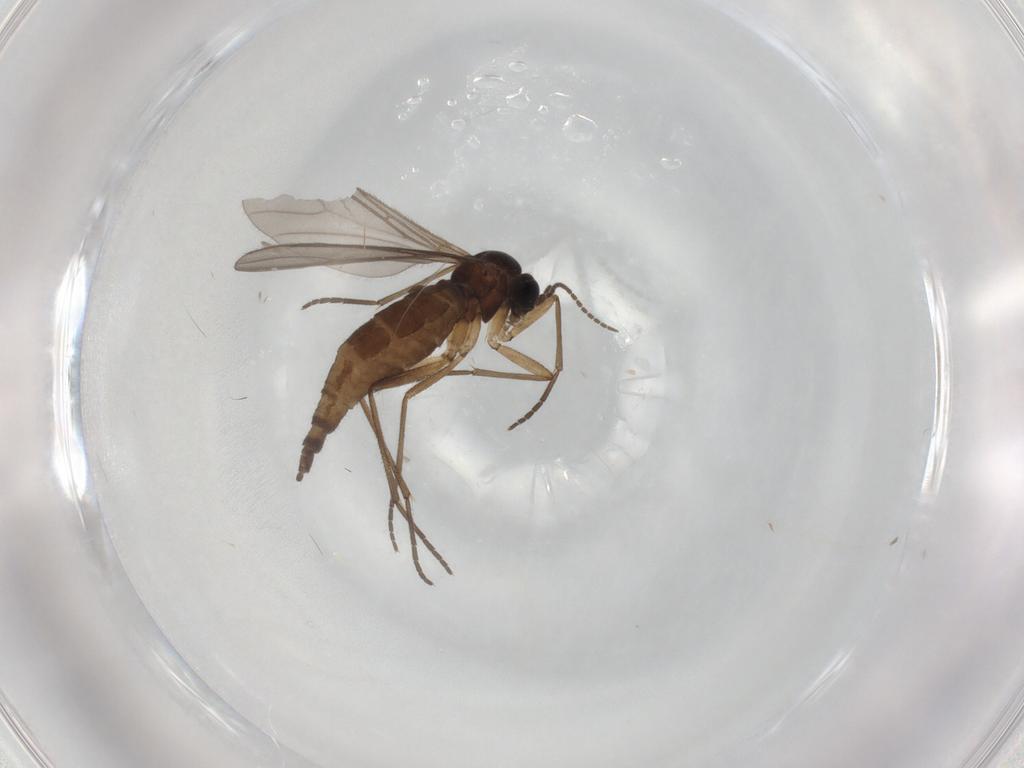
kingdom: Animalia
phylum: Arthropoda
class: Insecta
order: Diptera
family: Sciaridae
